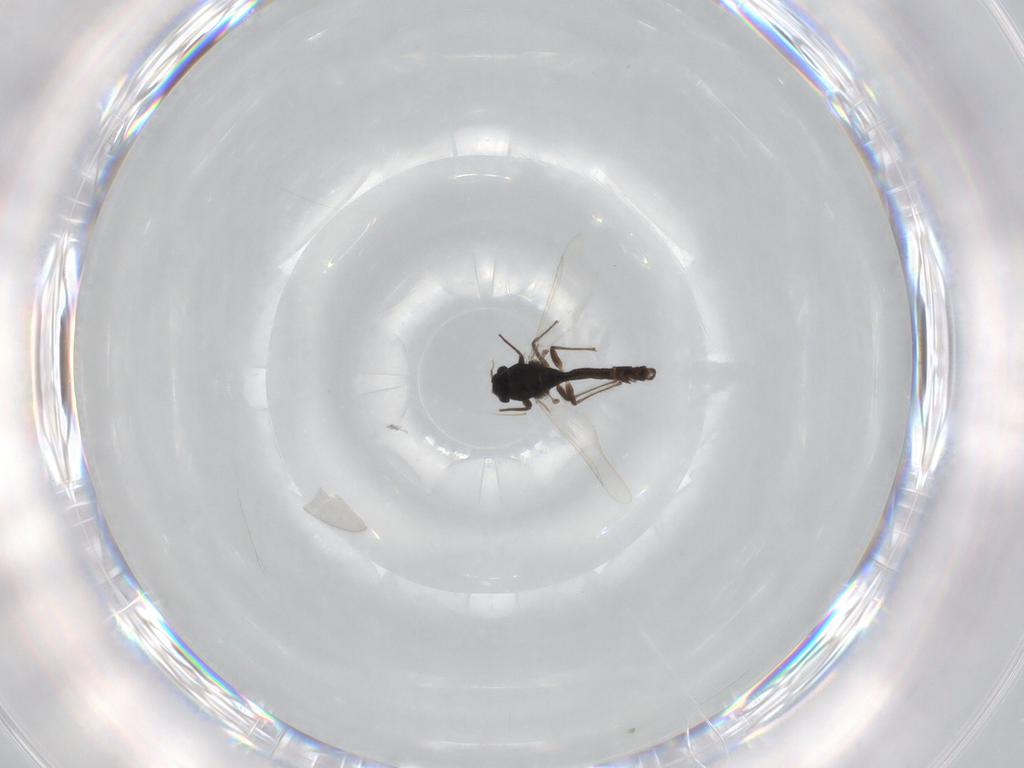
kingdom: Animalia
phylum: Arthropoda
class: Insecta
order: Diptera
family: Chironomidae
